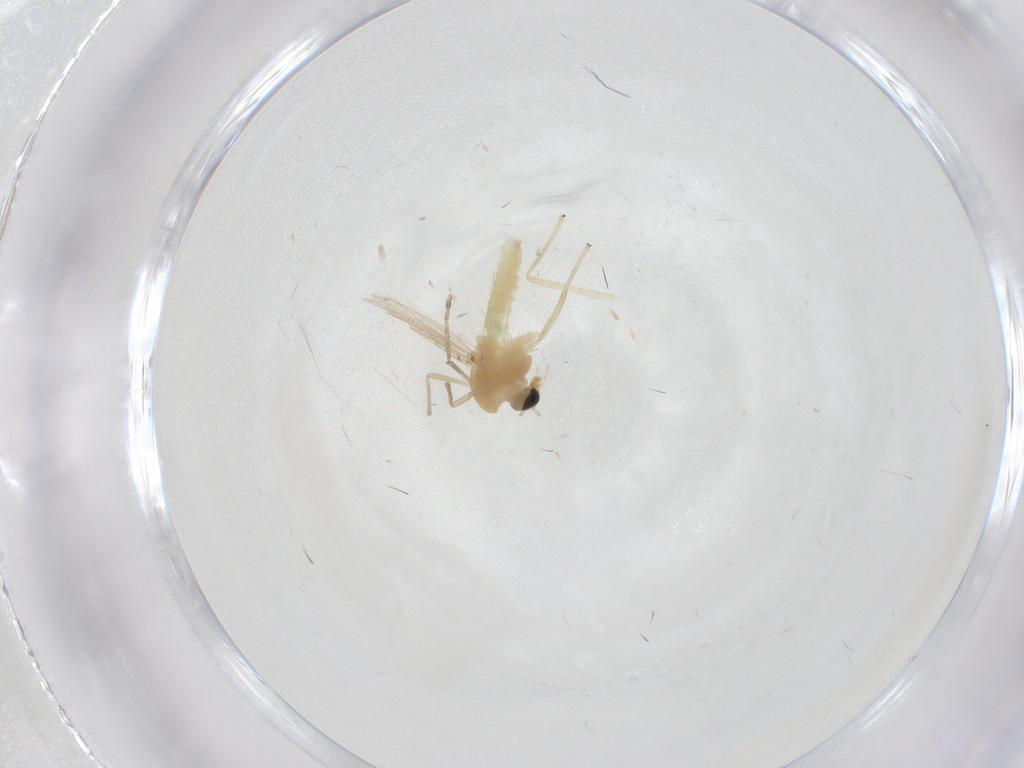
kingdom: Animalia
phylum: Arthropoda
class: Insecta
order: Diptera
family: Chironomidae
